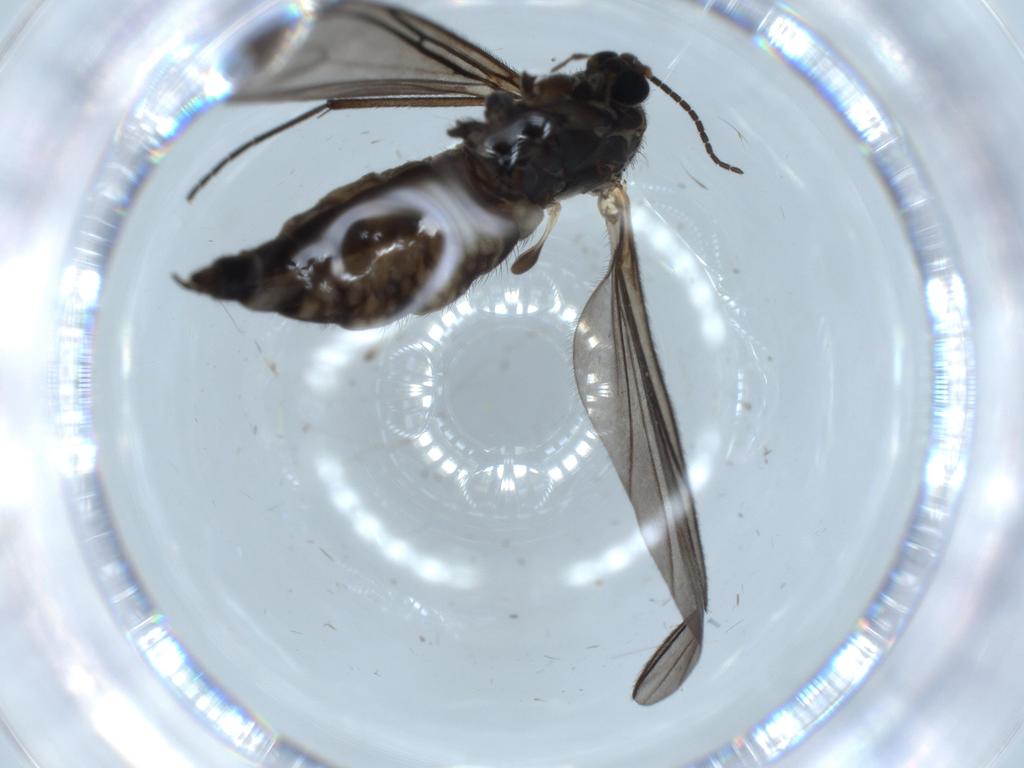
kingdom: Animalia
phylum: Arthropoda
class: Insecta
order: Diptera
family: Sciaridae
